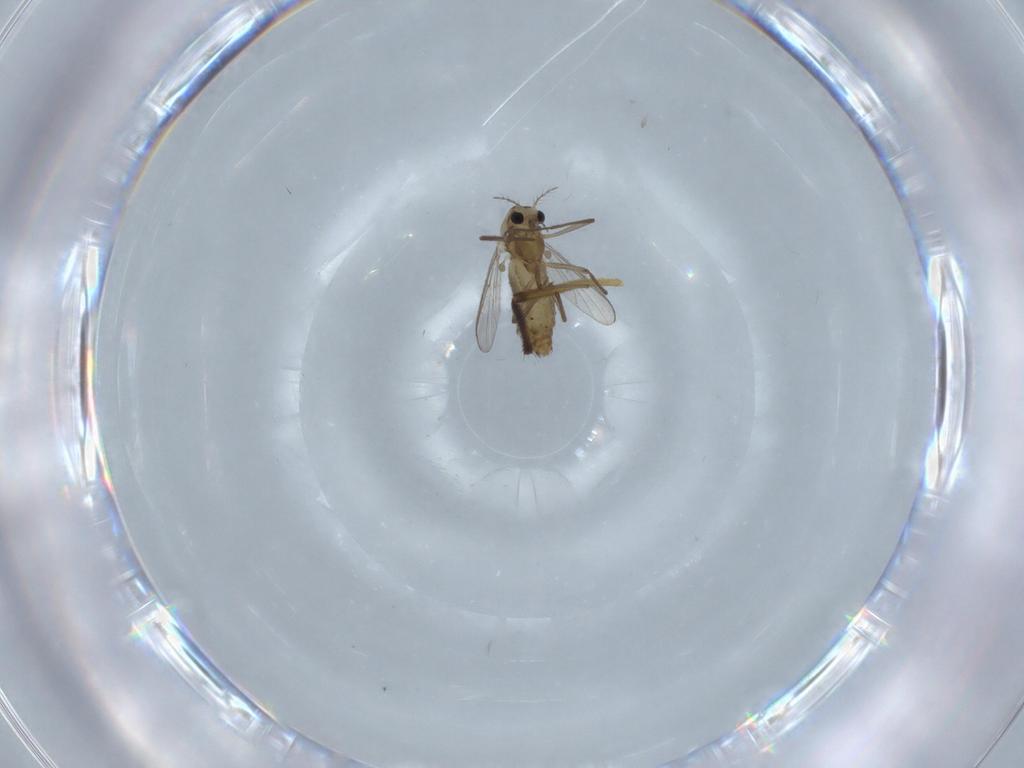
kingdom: Animalia
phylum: Arthropoda
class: Insecta
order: Diptera
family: Chironomidae
